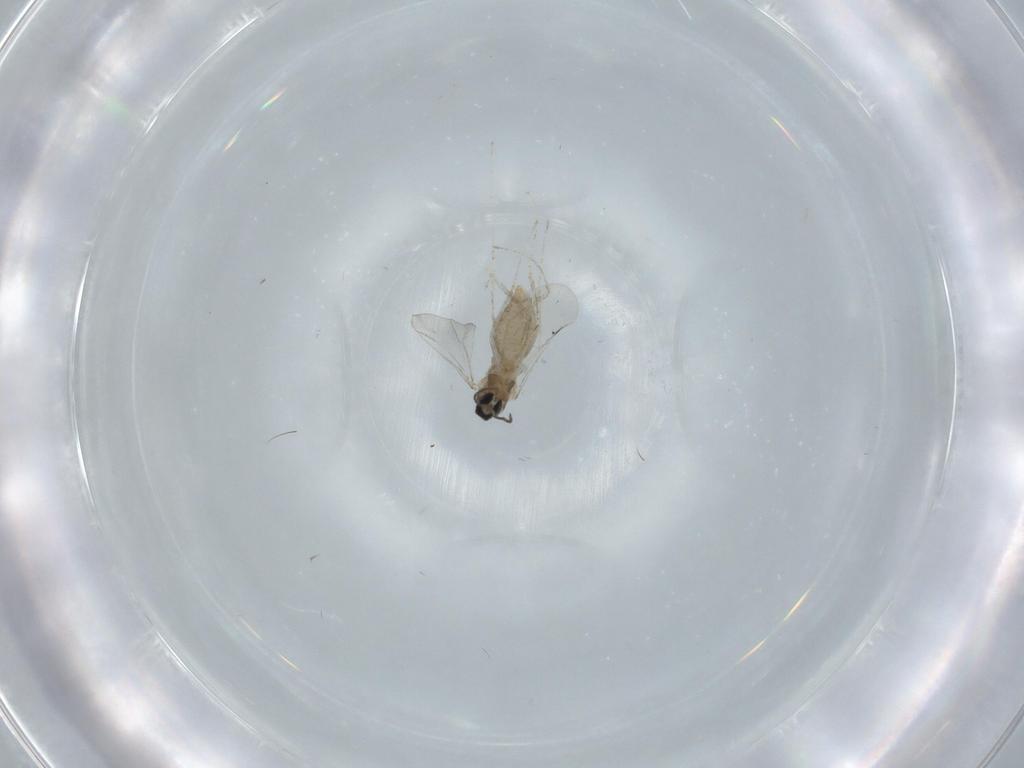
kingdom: Animalia
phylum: Arthropoda
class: Insecta
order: Diptera
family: Cecidomyiidae
